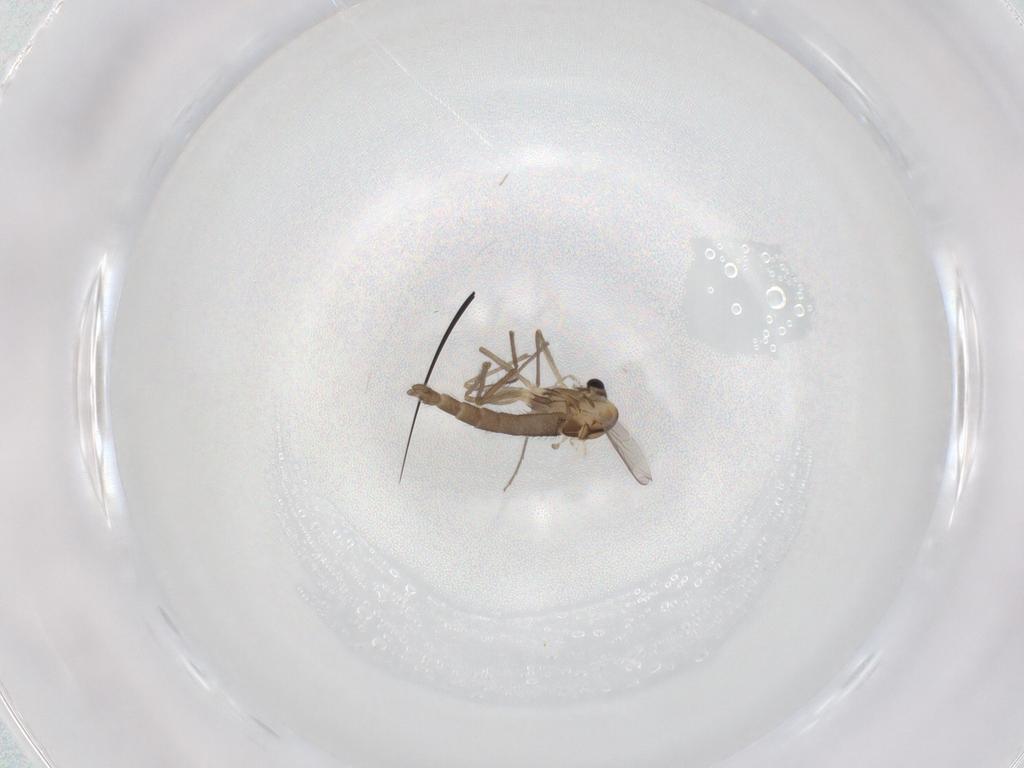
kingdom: Animalia
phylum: Arthropoda
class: Insecta
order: Diptera
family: Chironomidae
